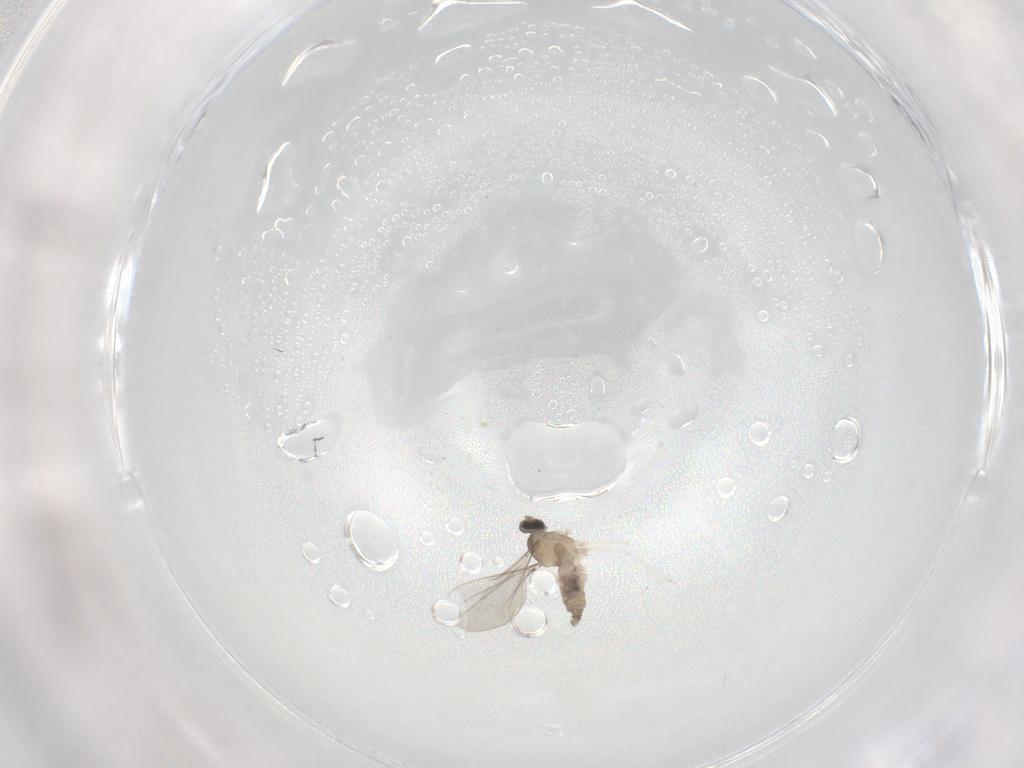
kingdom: Animalia
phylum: Arthropoda
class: Insecta
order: Diptera
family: Cecidomyiidae
